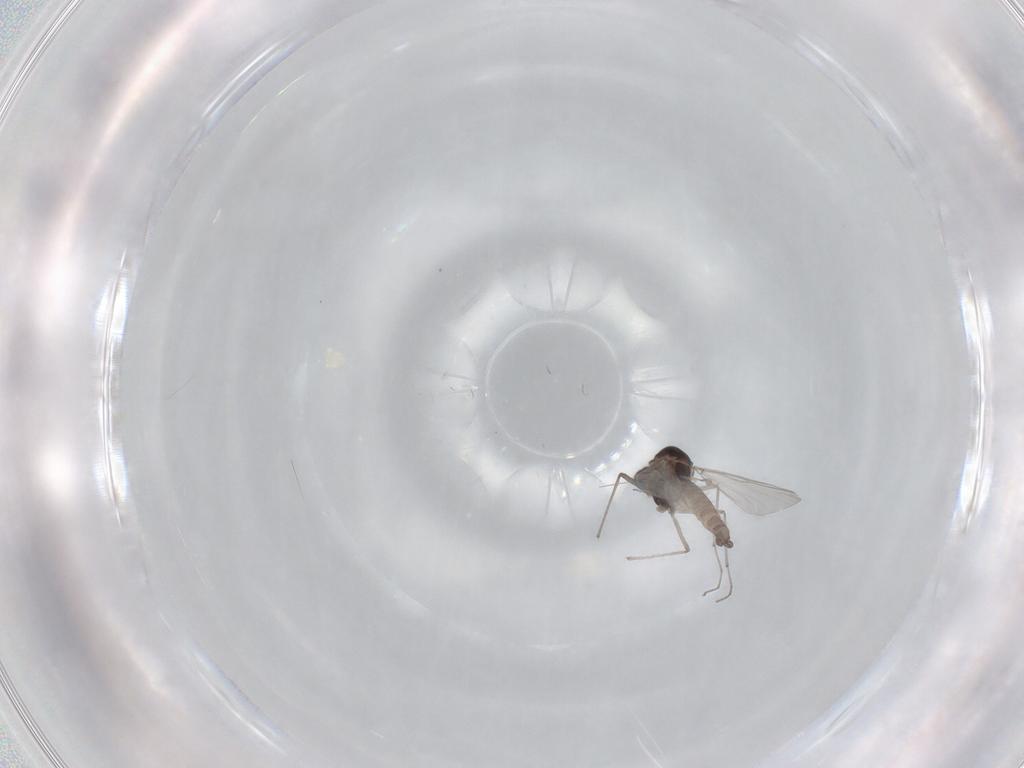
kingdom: Animalia
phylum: Arthropoda
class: Insecta
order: Diptera
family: Chironomidae
